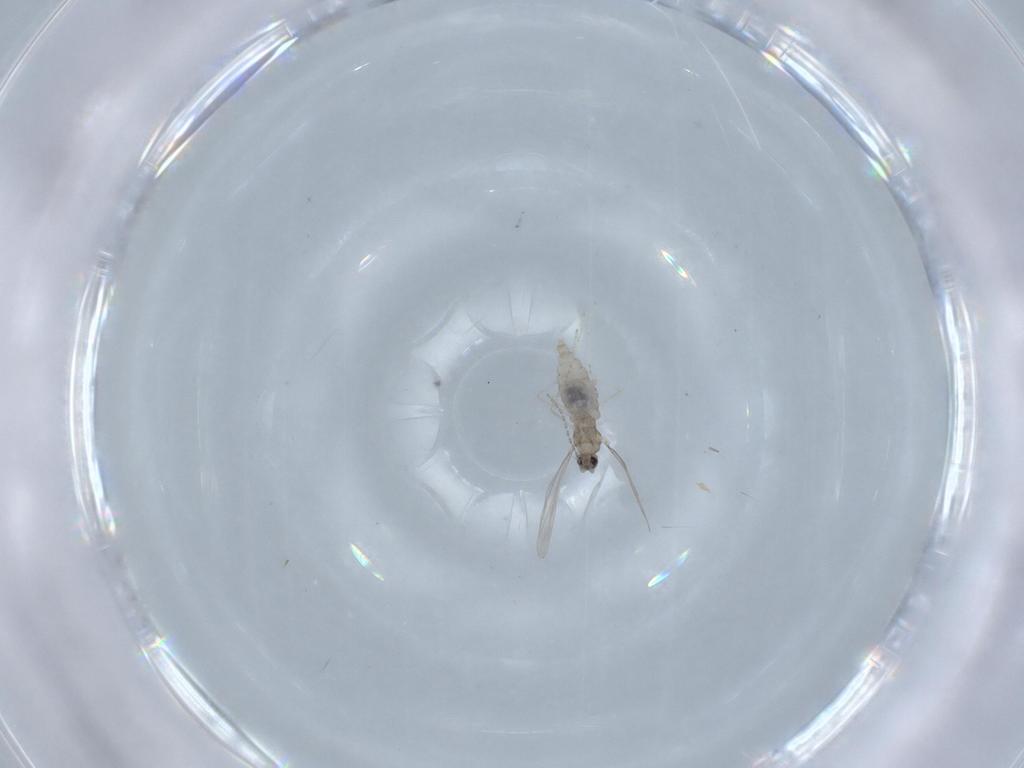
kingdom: Animalia
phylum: Arthropoda
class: Insecta
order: Diptera
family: Cecidomyiidae
